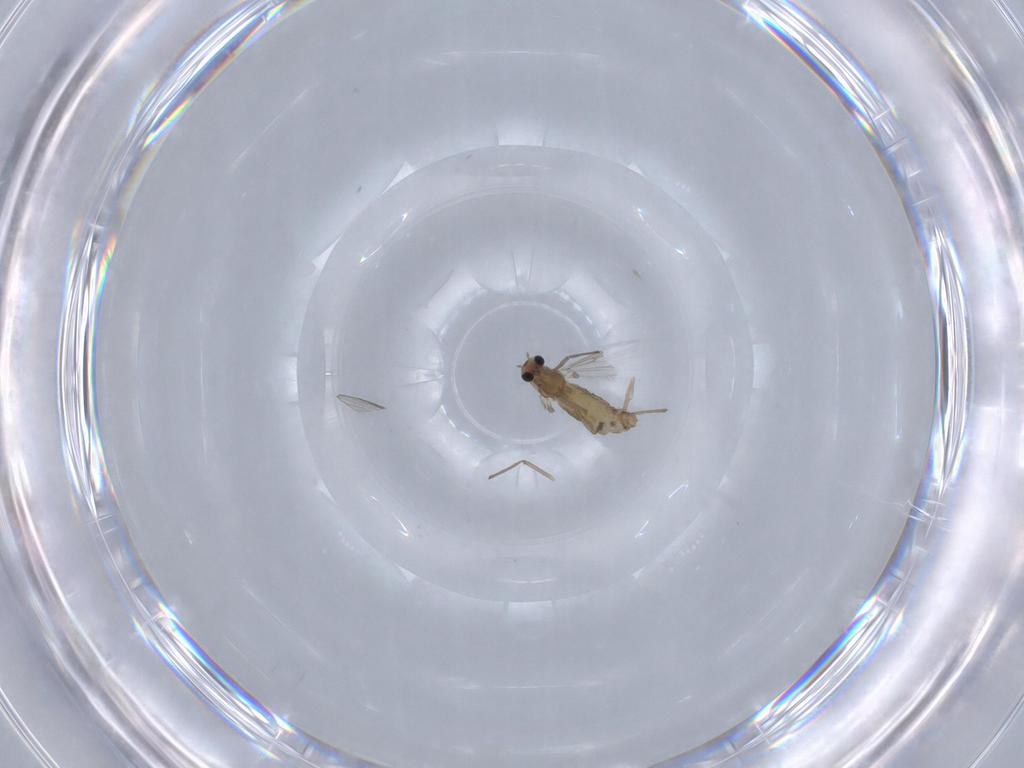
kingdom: Animalia
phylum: Arthropoda
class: Insecta
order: Diptera
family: Chironomidae
